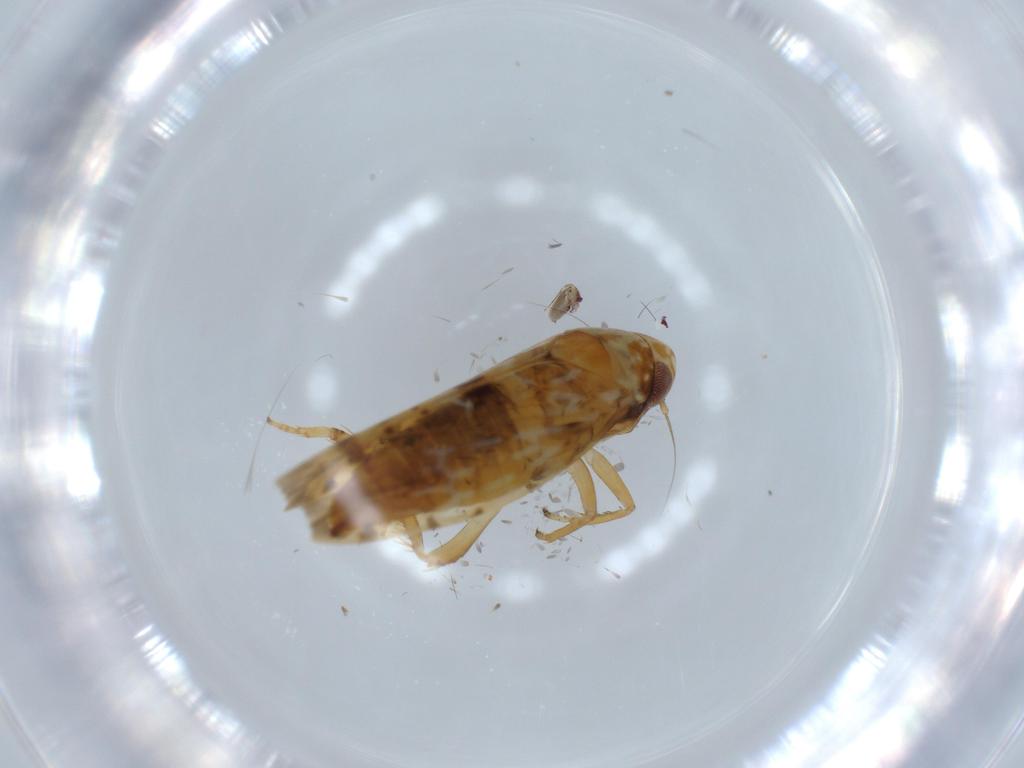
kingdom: Animalia
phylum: Arthropoda
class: Insecta
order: Hemiptera
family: Cicadellidae
